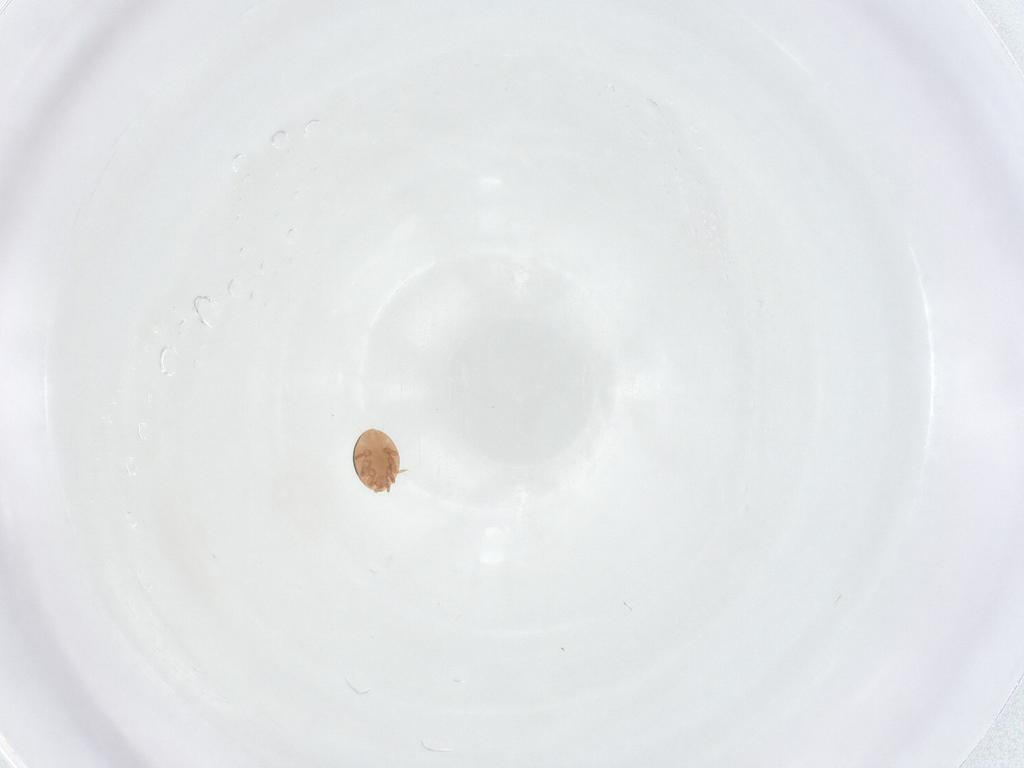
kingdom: Animalia
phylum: Arthropoda
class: Arachnida
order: Mesostigmata
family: Trematuridae
